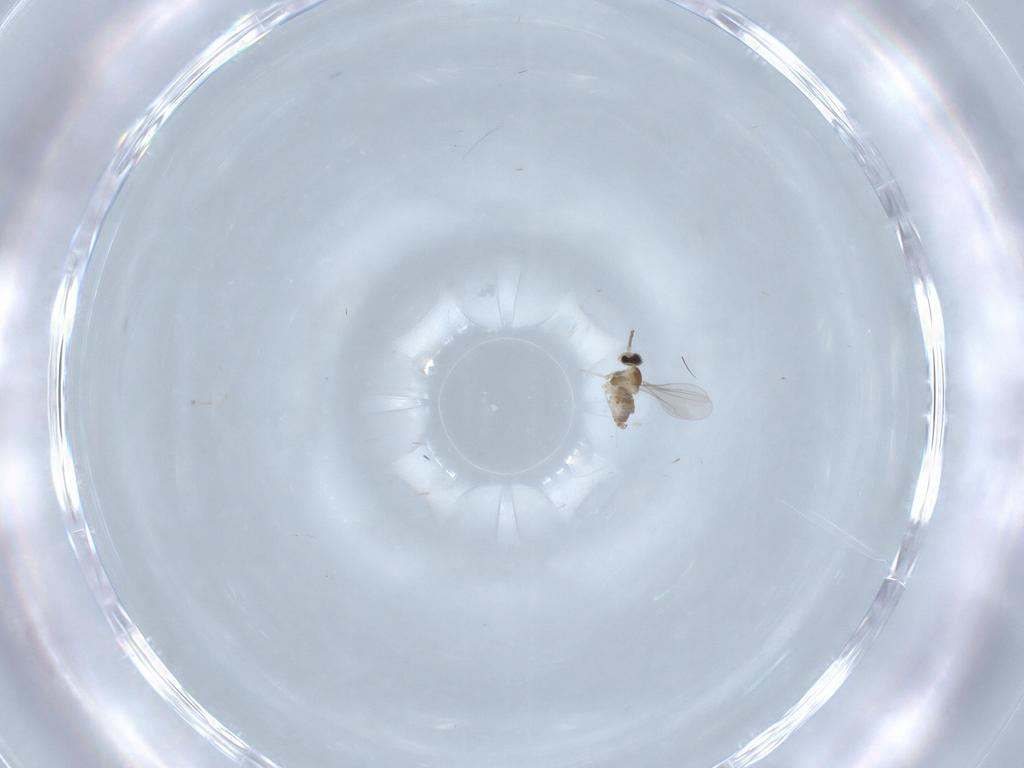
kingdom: Animalia
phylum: Arthropoda
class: Insecta
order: Diptera
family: Cecidomyiidae
